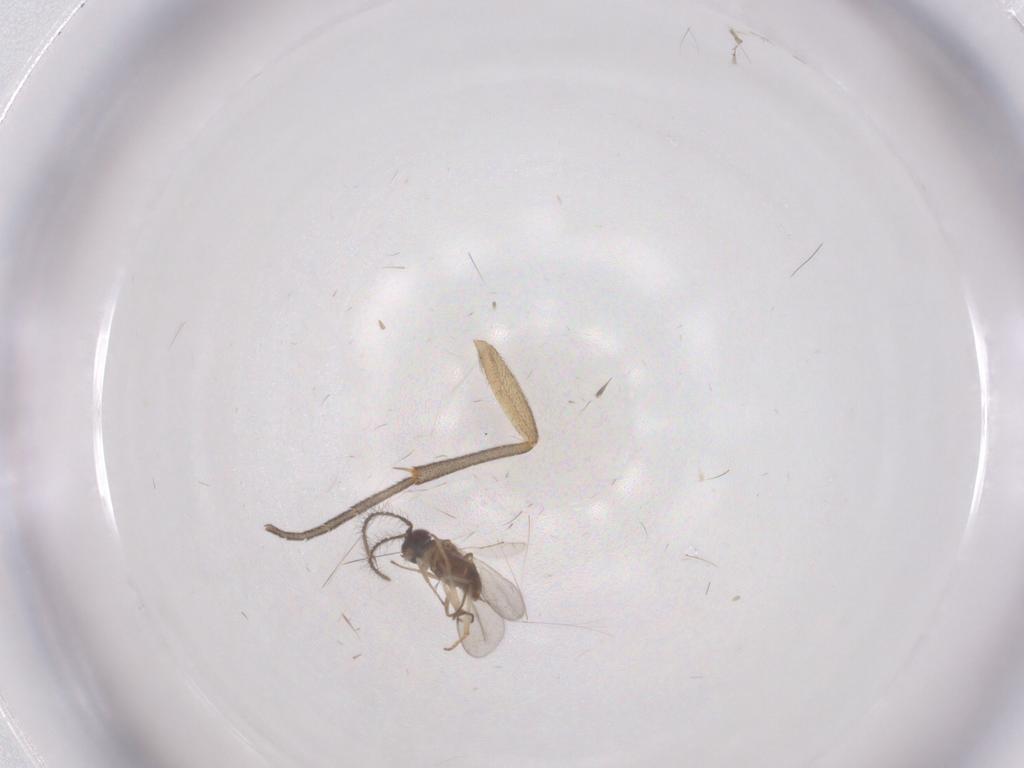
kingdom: Animalia
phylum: Arthropoda
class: Insecta
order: Diptera
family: Mycetophilidae
